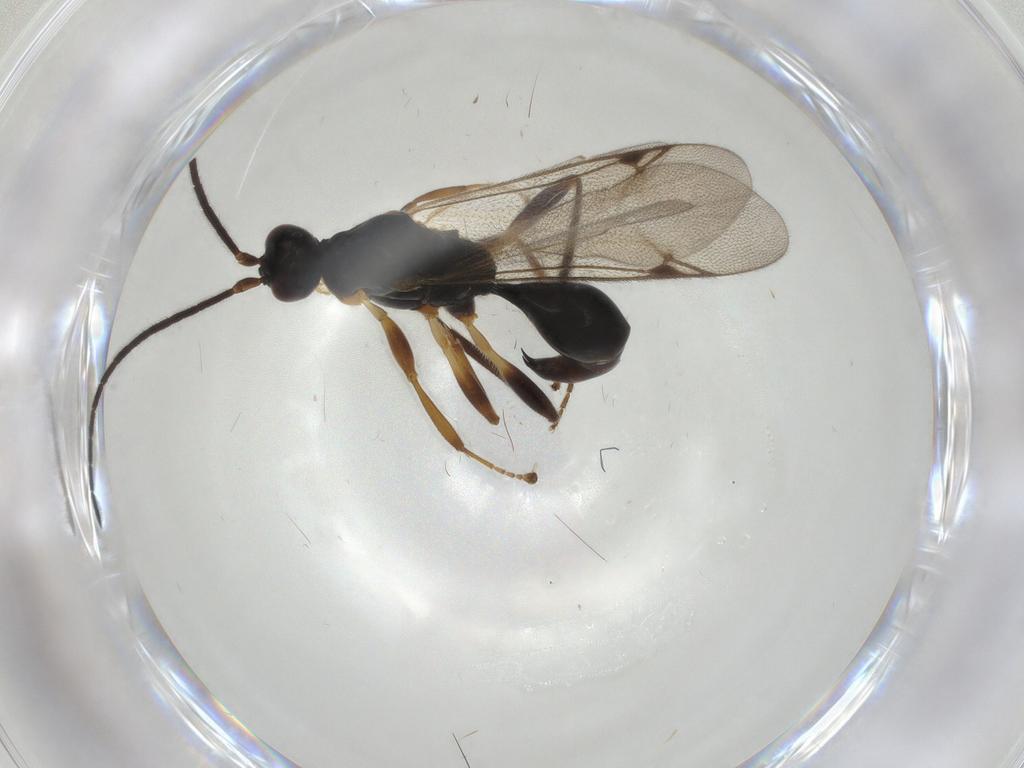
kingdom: Animalia
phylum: Arthropoda
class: Insecta
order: Hymenoptera
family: Proctotrupidae
